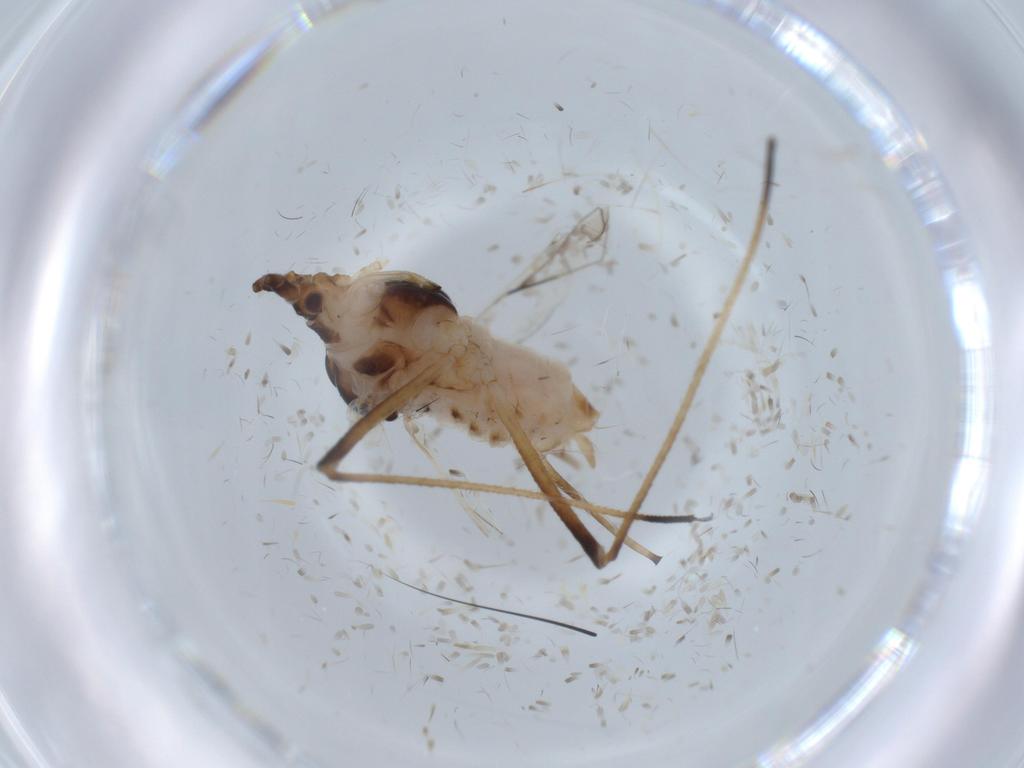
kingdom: Animalia
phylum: Arthropoda
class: Insecta
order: Hemiptera
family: Aphididae
